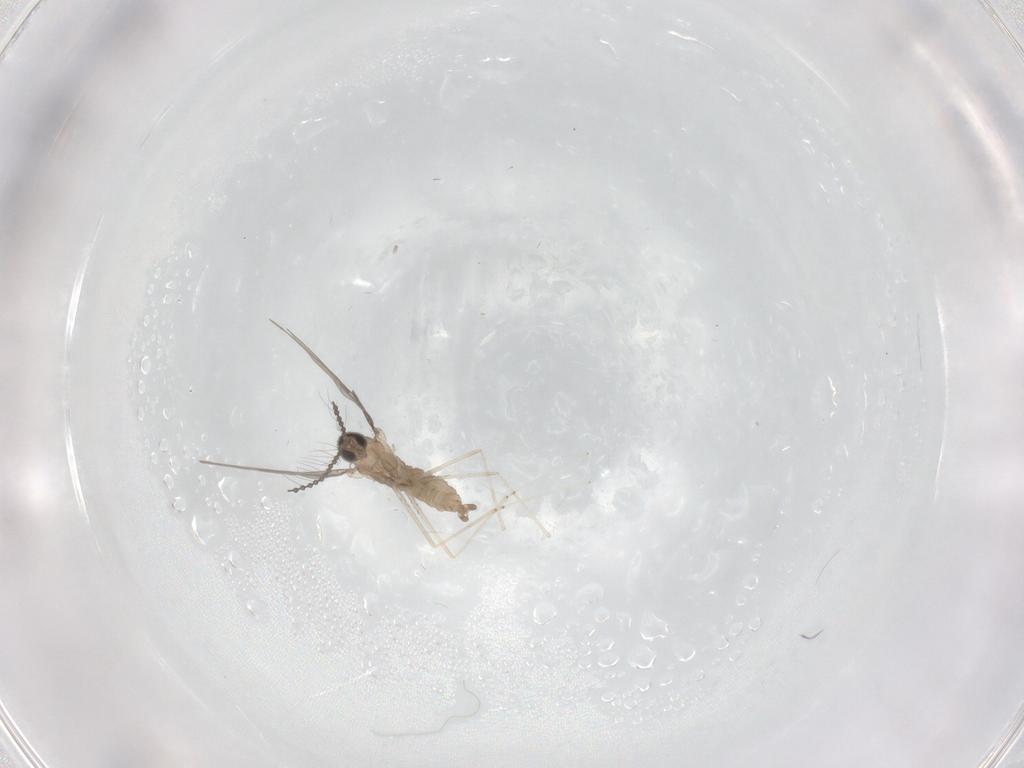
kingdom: Animalia
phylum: Arthropoda
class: Insecta
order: Diptera
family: Cecidomyiidae
